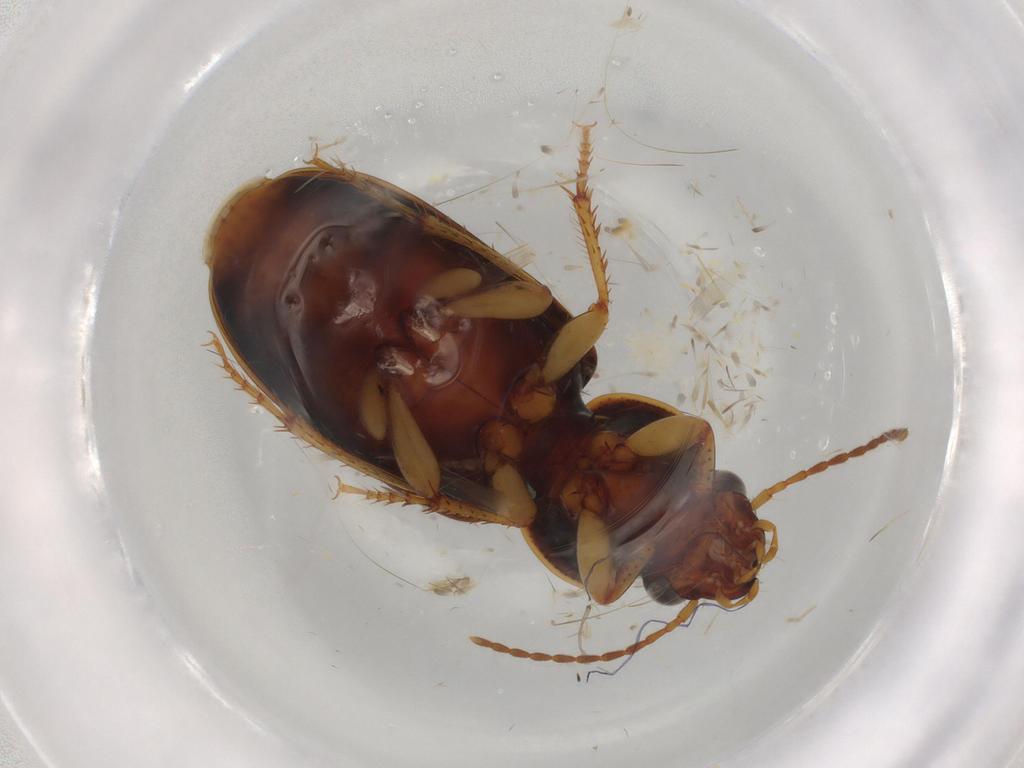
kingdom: Animalia
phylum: Arthropoda
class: Insecta
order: Coleoptera
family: Carabidae
